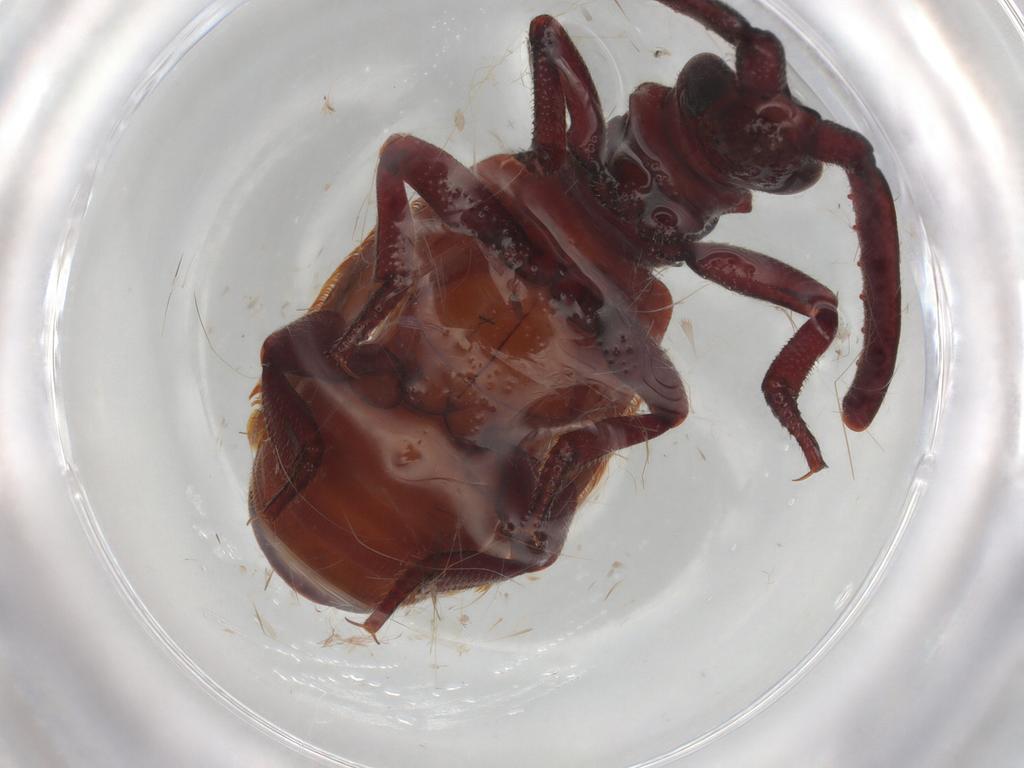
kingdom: Animalia
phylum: Arthropoda
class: Insecta
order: Coleoptera
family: Carabidae
